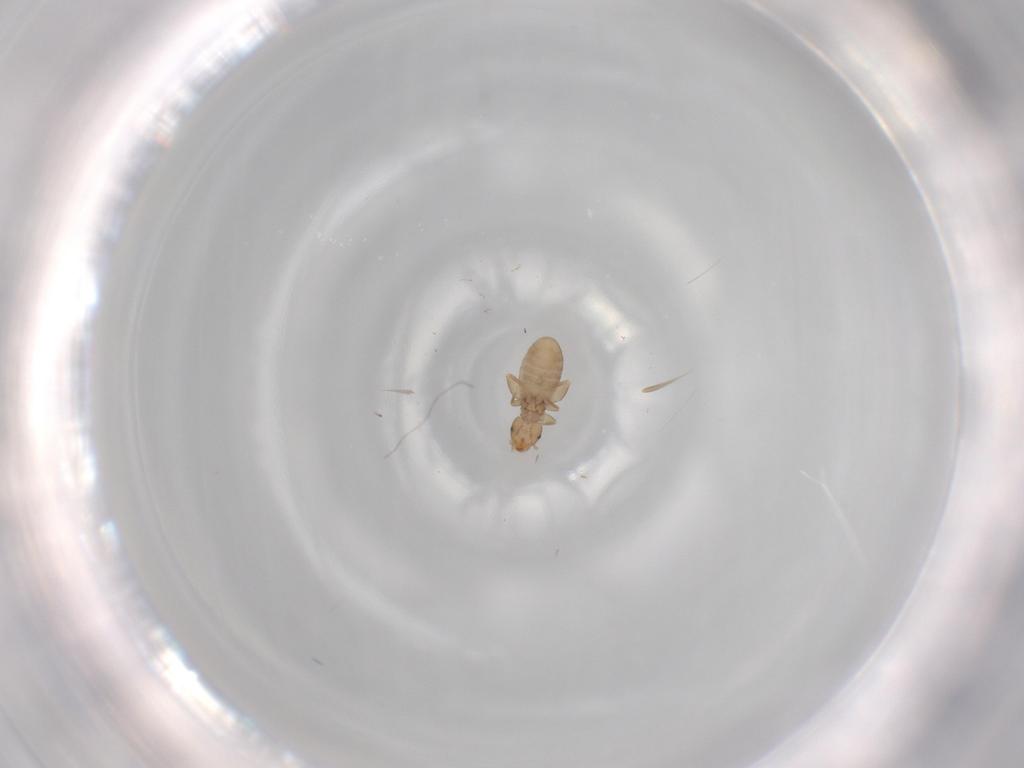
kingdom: Animalia
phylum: Arthropoda
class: Insecta
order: Psocodea
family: Liposcelididae
